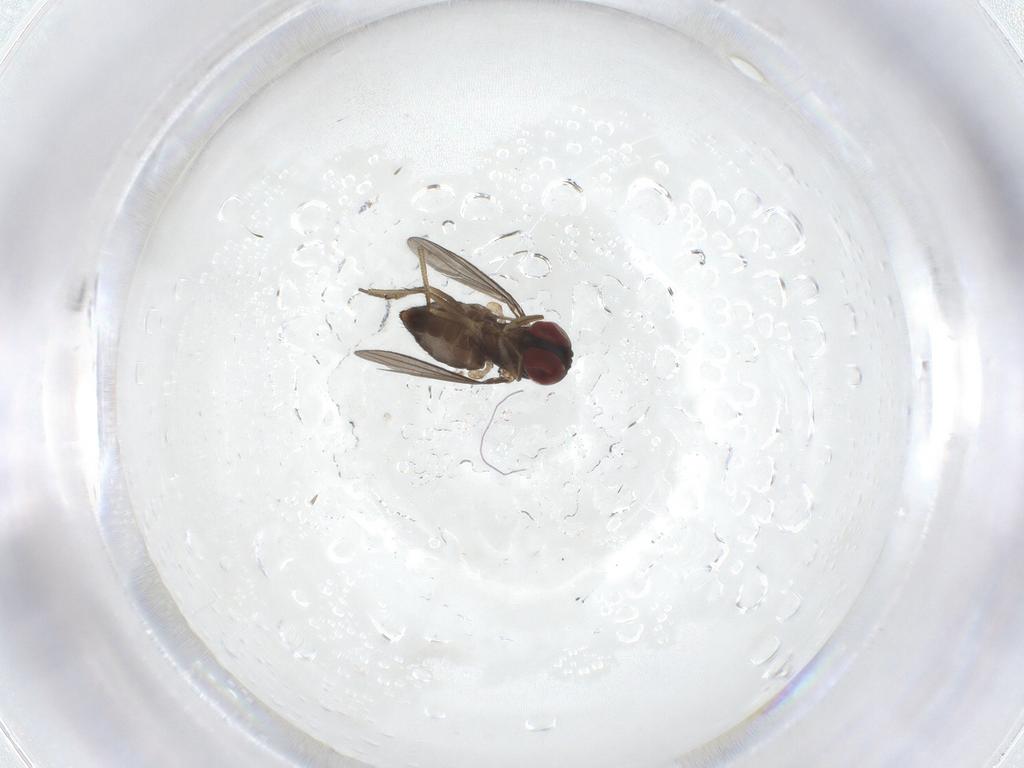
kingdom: Animalia
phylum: Arthropoda
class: Insecta
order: Diptera
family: Dolichopodidae
